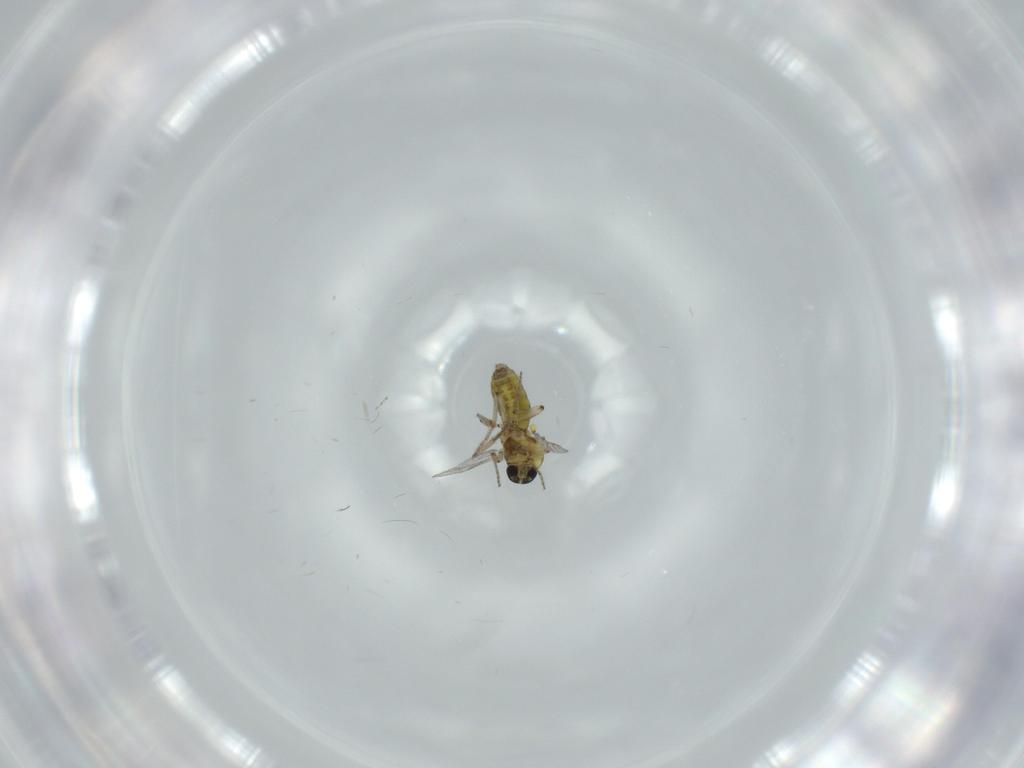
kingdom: Animalia
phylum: Arthropoda
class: Insecta
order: Diptera
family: Ceratopogonidae
